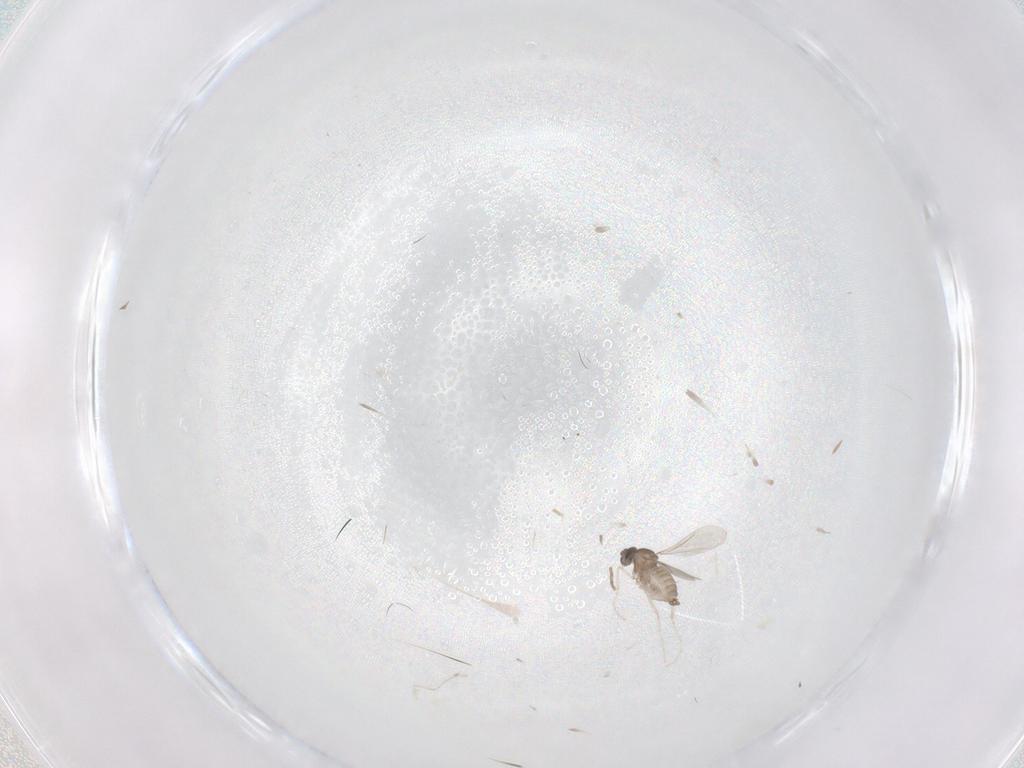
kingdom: Animalia
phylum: Arthropoda
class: Insecta
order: Diptera
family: Cecidomyiidae
